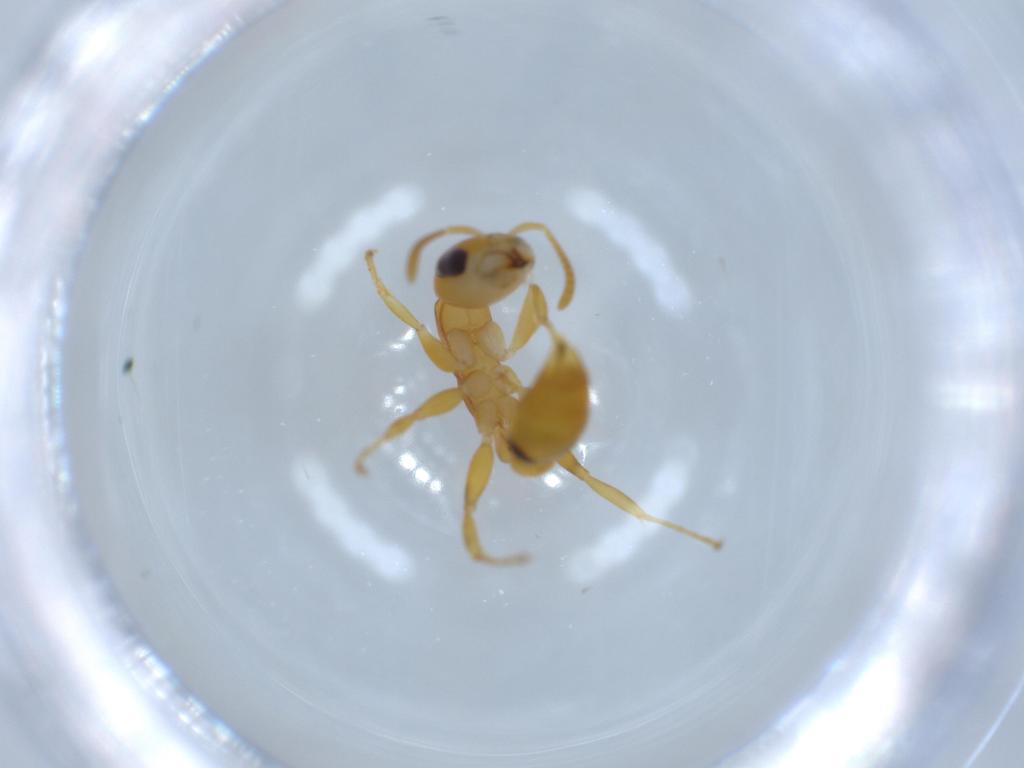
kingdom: Animalia
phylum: Arthropoda
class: Insecta
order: Hymenoptera
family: Formicidae
